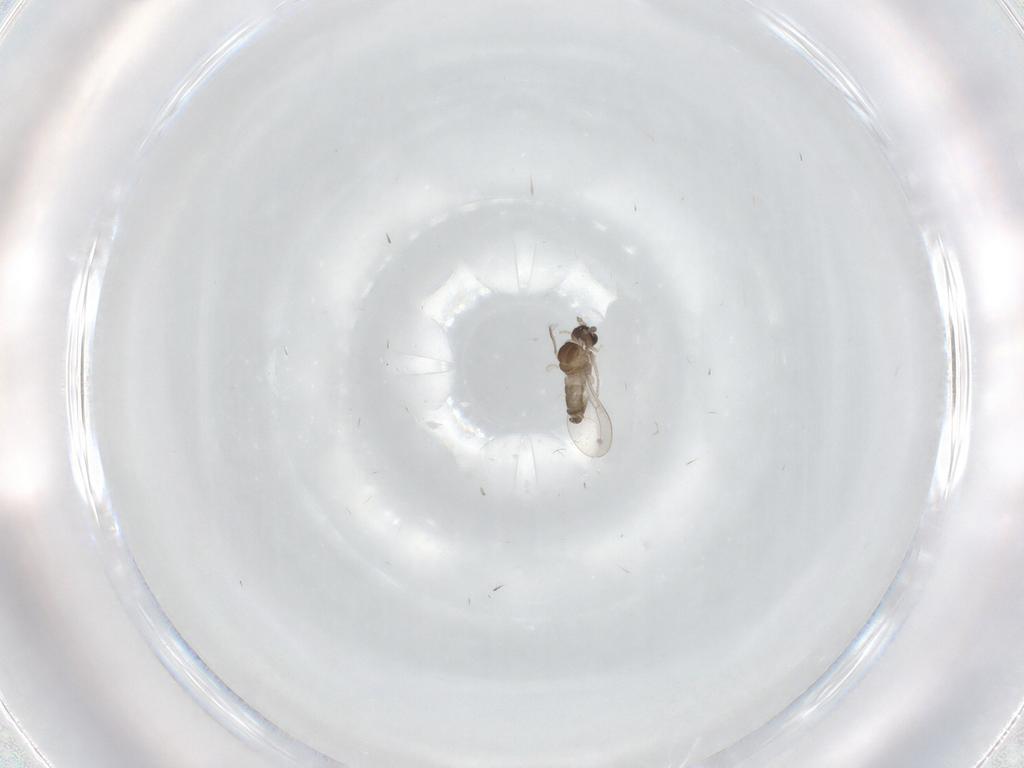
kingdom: Animalia
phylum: Arthropoda
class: Insecta
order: Diptera
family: Cecidomyiidae
